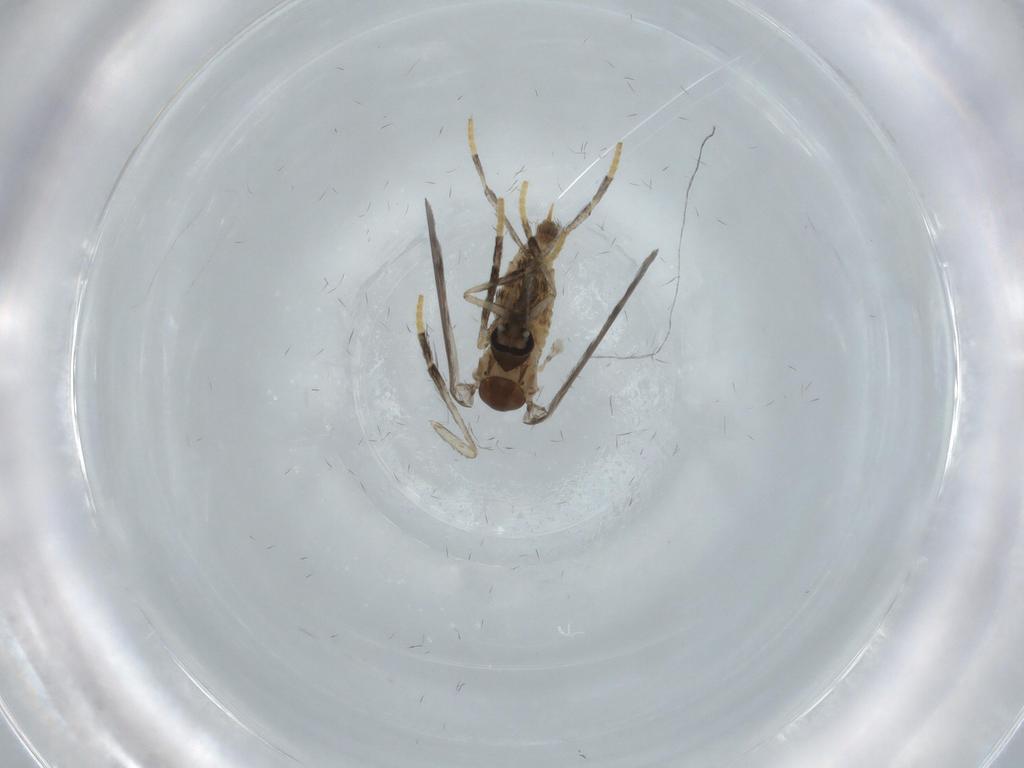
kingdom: Animalia
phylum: Arthropoda
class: Insecta
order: Diptera
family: Psychodidae
